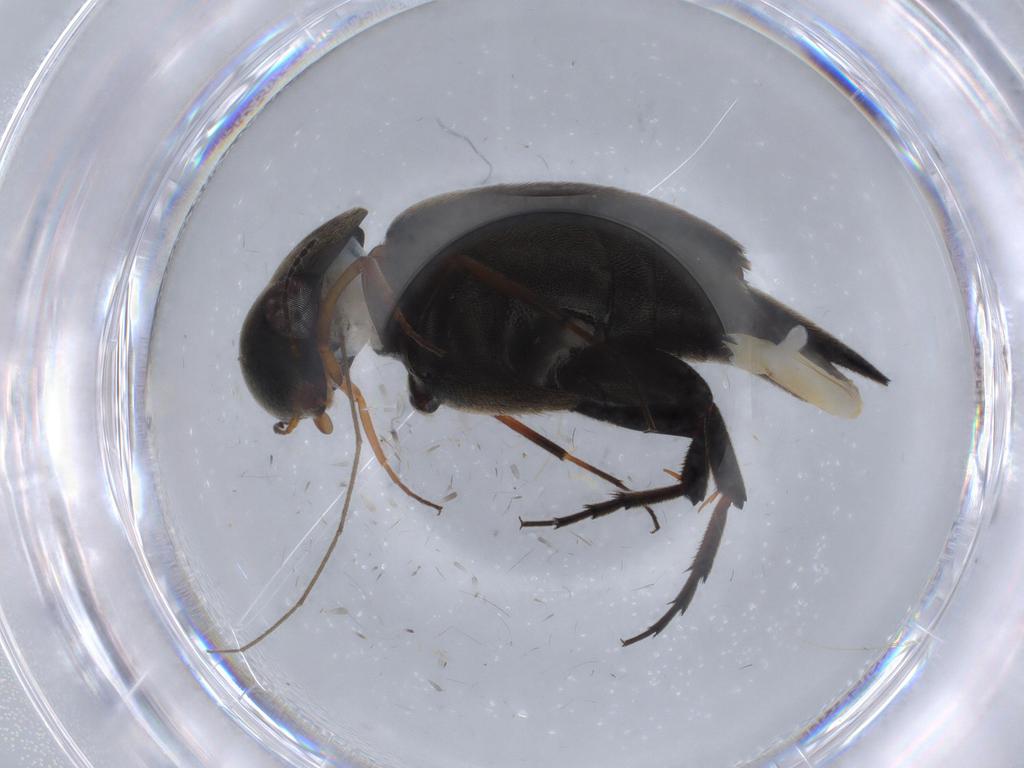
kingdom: Animalia
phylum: Arthropoda
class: Insecta
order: Coleoptera
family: Mordellidae
